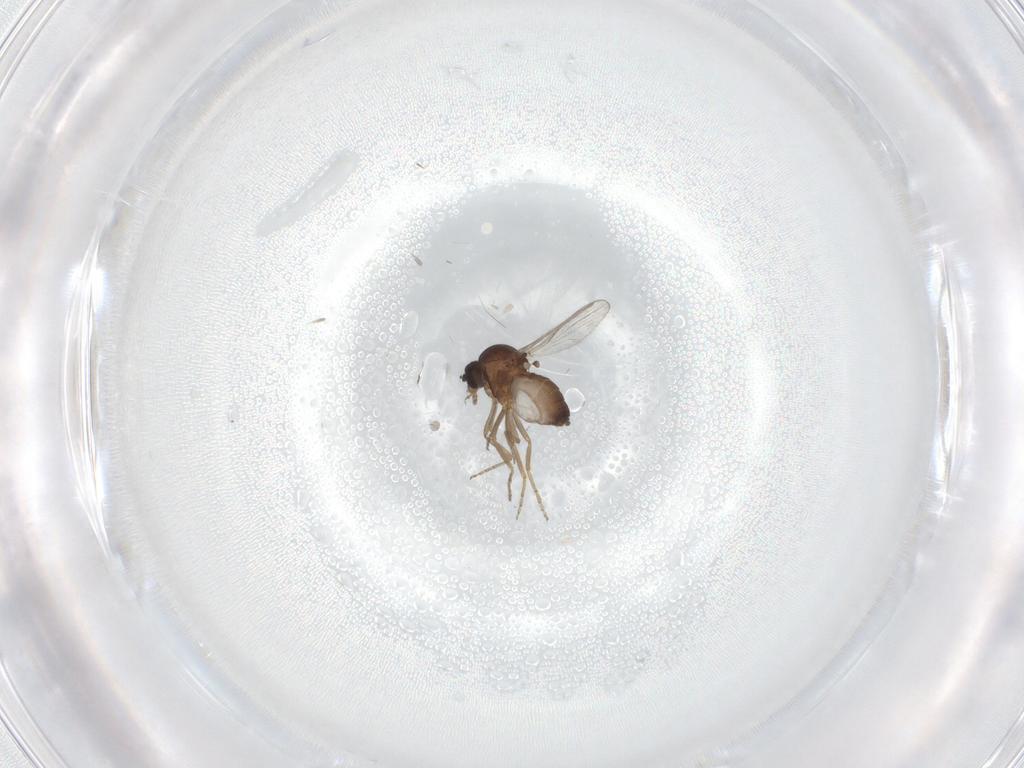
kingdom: Animalia
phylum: Arthropoda
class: Insecta
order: Diptera
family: Ceratopogonidae
